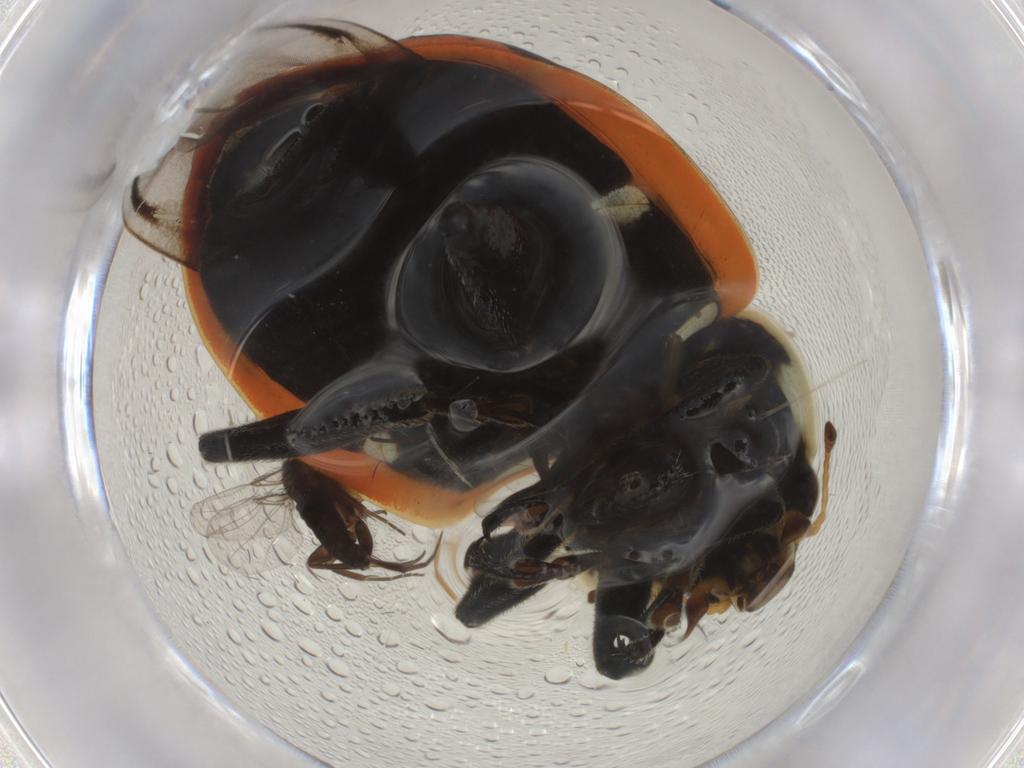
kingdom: Animalia
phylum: Arthropoda
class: Insecta
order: Coleoptera
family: Coccinellidae
